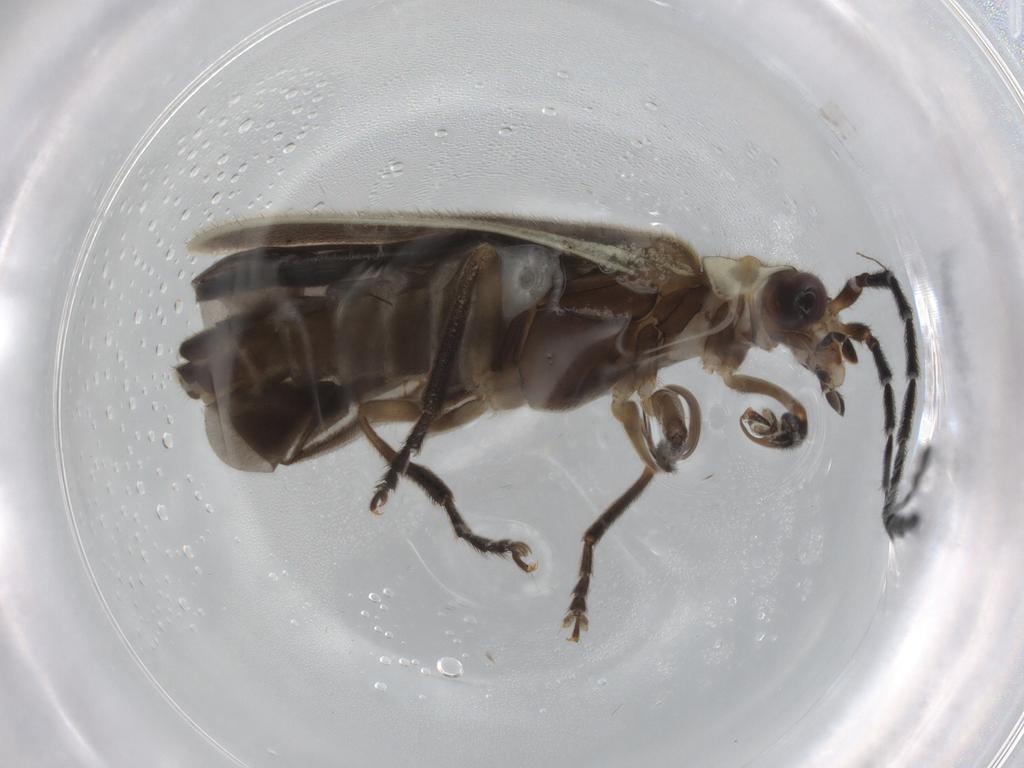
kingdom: Animalia
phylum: Arthropoda
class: Insecta
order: Coleoptera
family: Cantharidae
